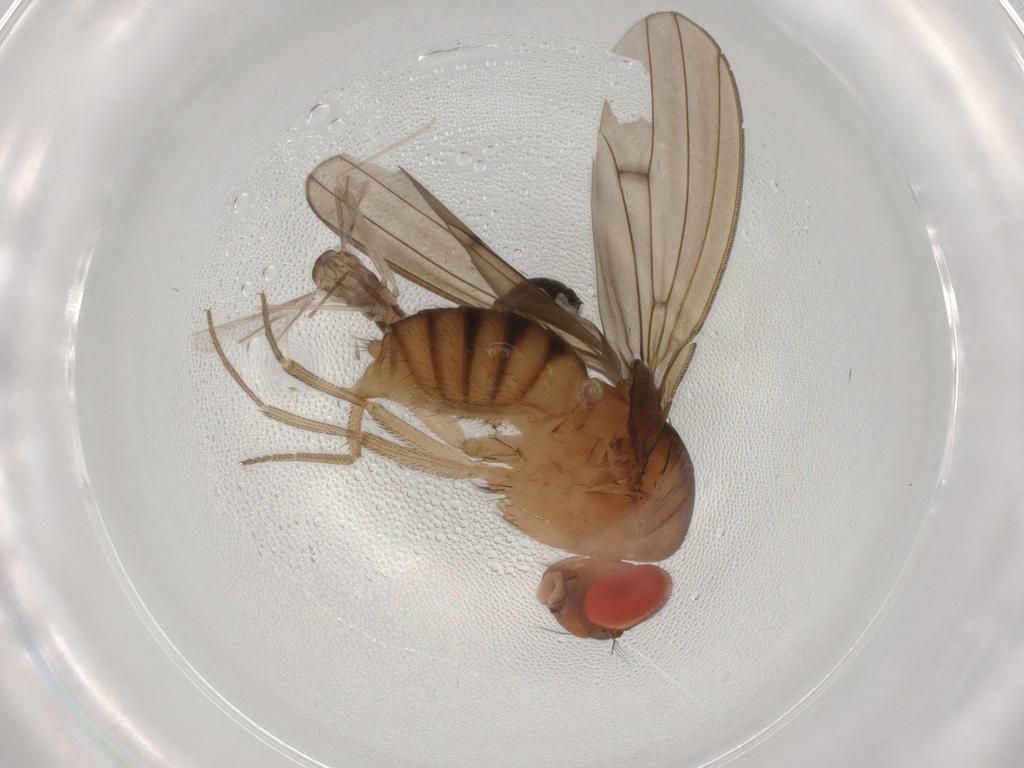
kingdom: Animalia
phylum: Arthropoda
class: Insecta
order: Diptera
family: Drosophilidae
